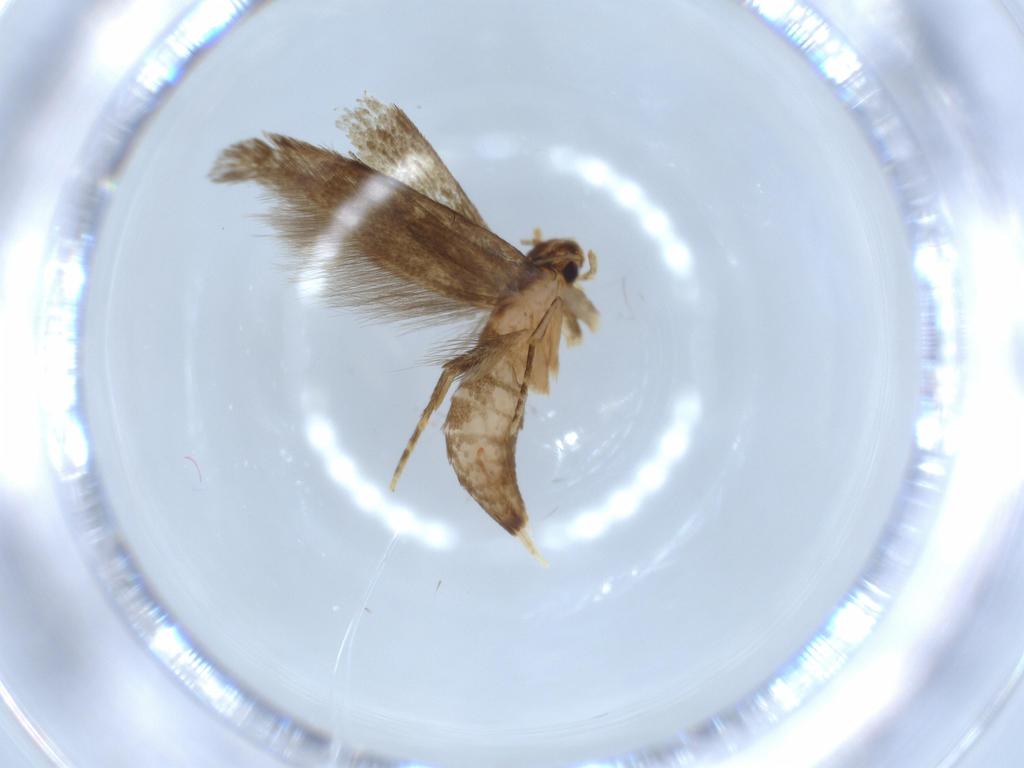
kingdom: Animalia
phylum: Arthropoda
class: Insecta
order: Lepidoptera
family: Tineidae
